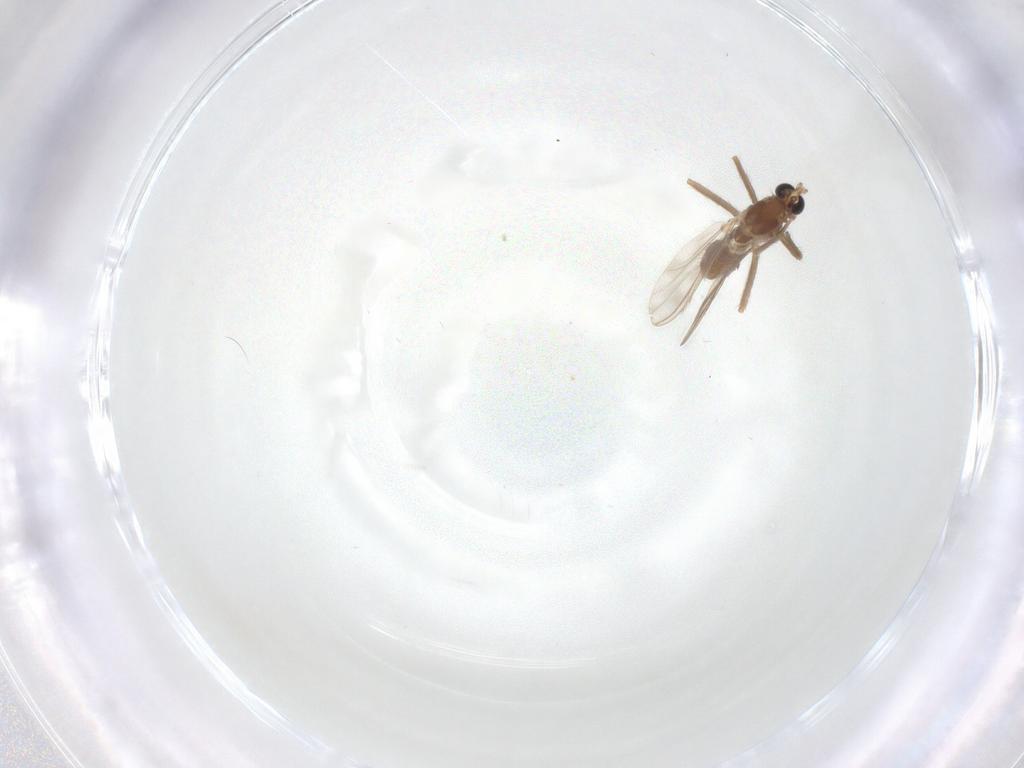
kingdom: Animalia
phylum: Arthropoda
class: Insecta
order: Diptera
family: Chironomidae
